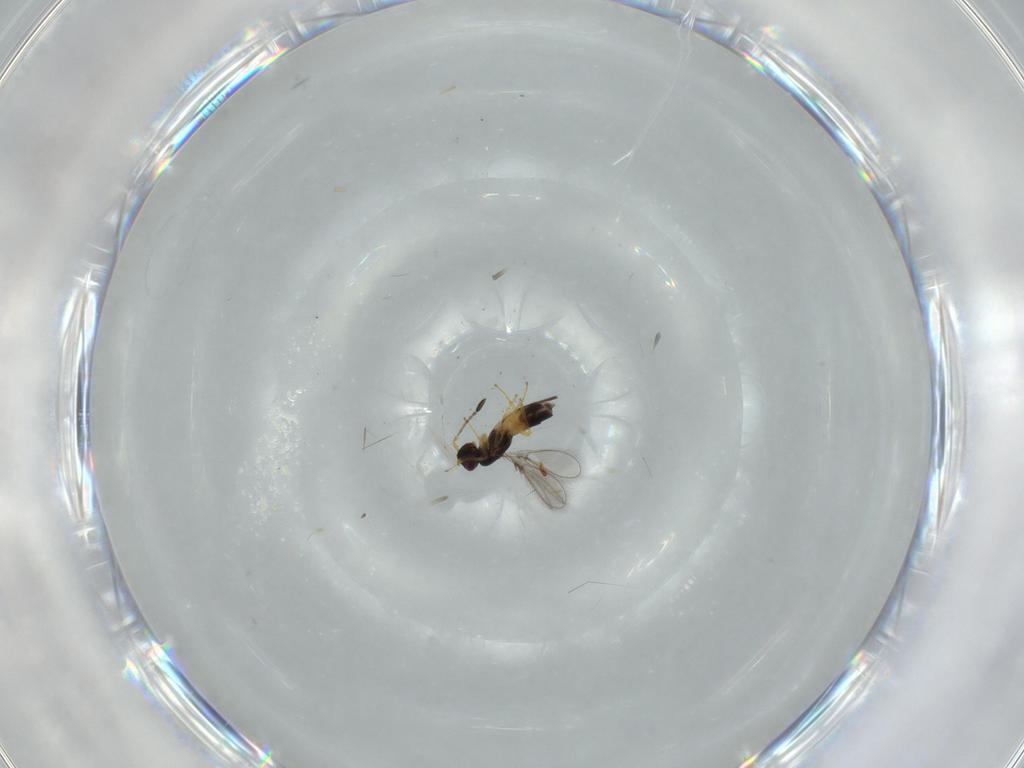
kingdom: Animalia
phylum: Arthropoda
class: Insecta
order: Hymenoptera
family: Mymaridae
